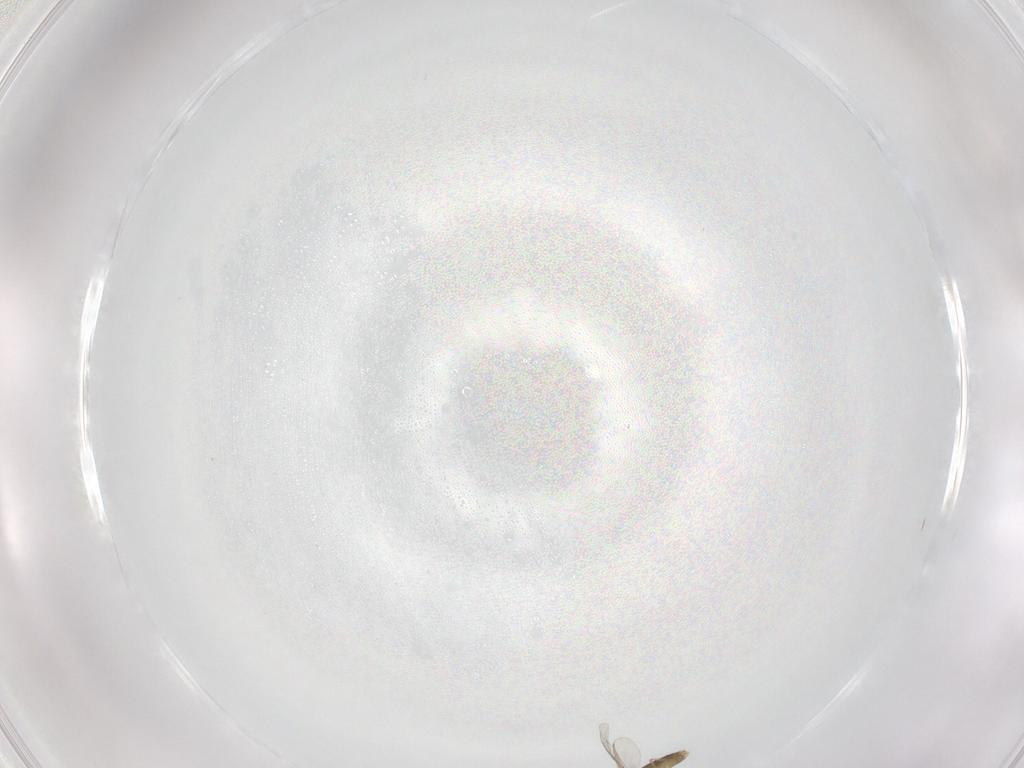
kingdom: Animalia
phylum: Arthropoda
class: Insecta
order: Diptera
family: Chironomidae
